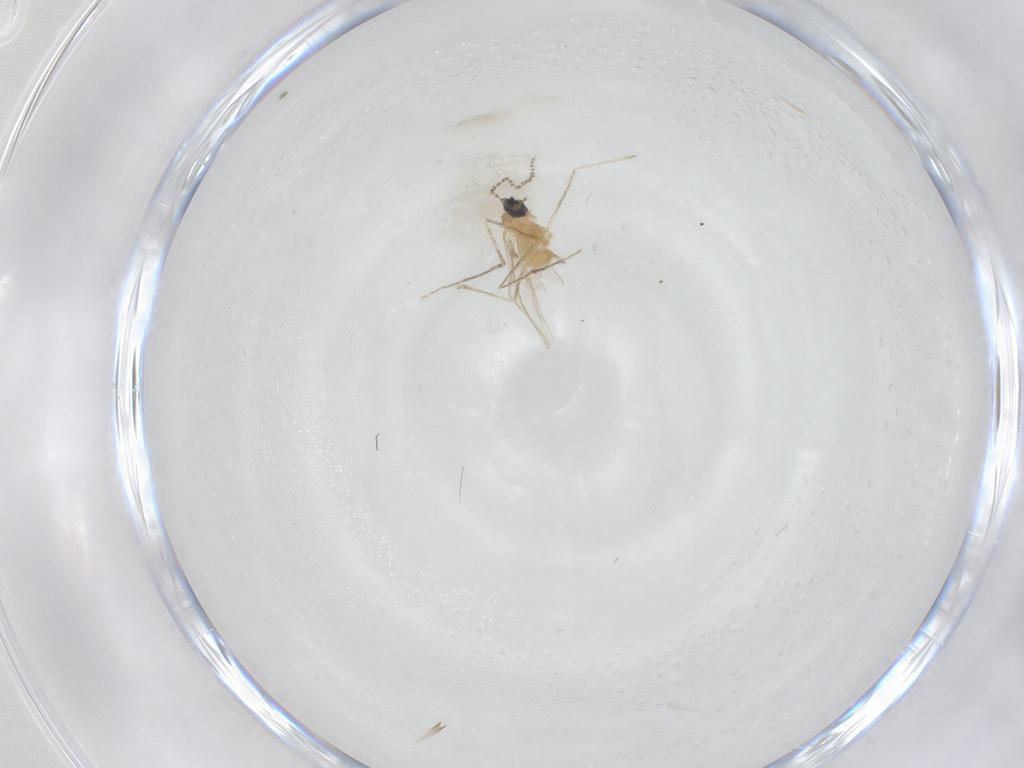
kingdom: Animalia
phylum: Arthropoda
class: Insecta
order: Diptera
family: Cecidomyiidae
